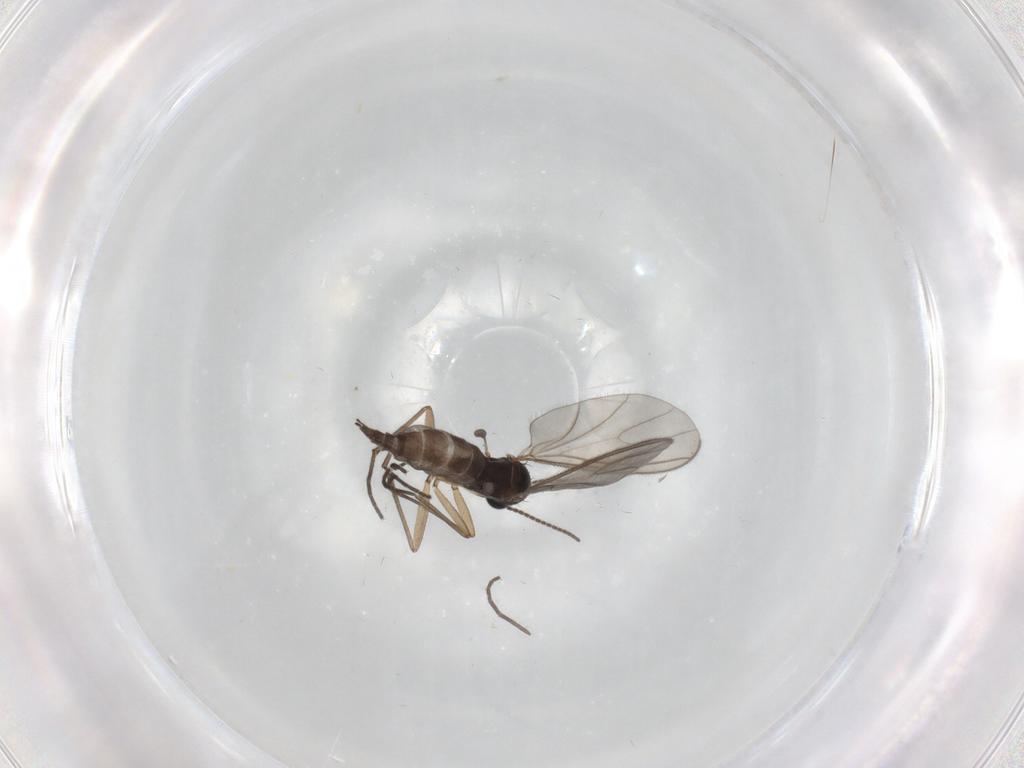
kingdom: Animalia
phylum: Arthropoda
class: Insecta
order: Diptera
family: Sciaridae
